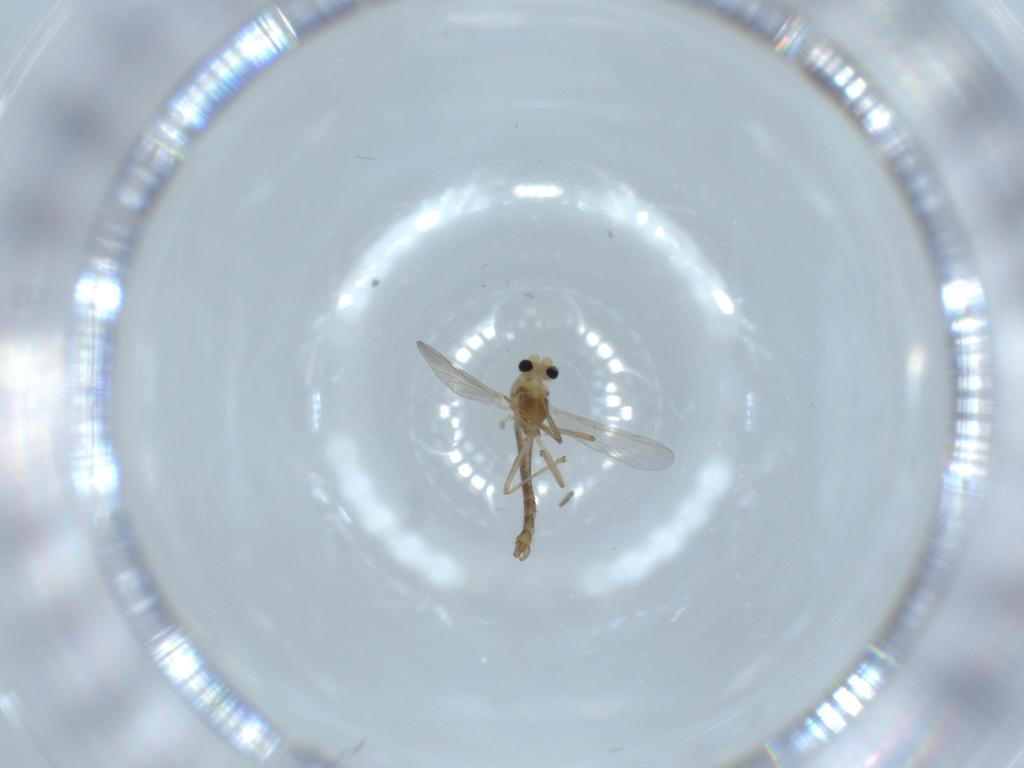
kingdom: Animalia
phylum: Arthropoda
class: Insecta
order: Diptera
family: Chironomidae
